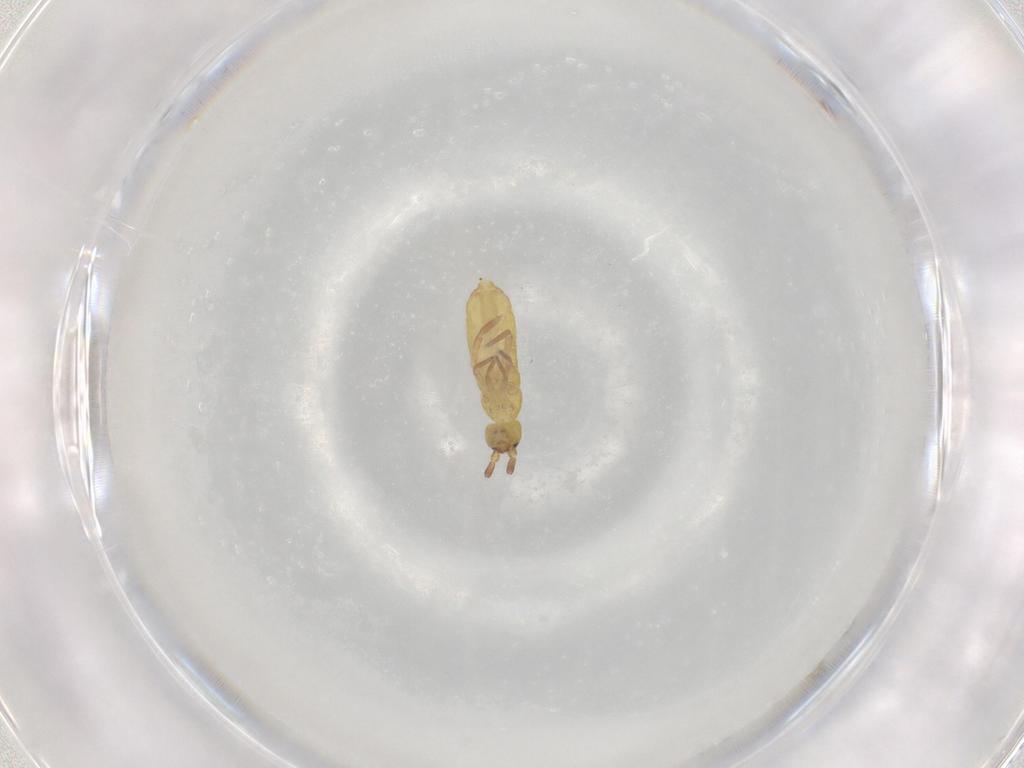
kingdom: Animalia
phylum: Arthropoda
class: Collembola
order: Entomobryomorpha
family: Tomoceridae
